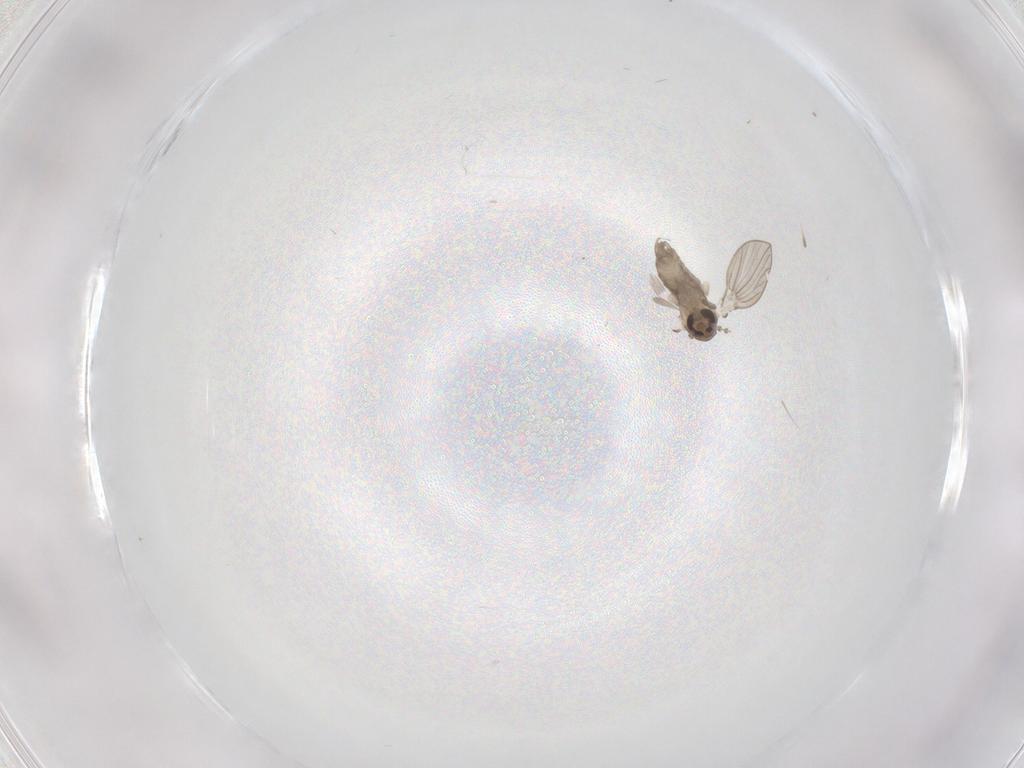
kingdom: Animalia
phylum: Arthropoda
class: Insecta
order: Diptera
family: Psychodidae
